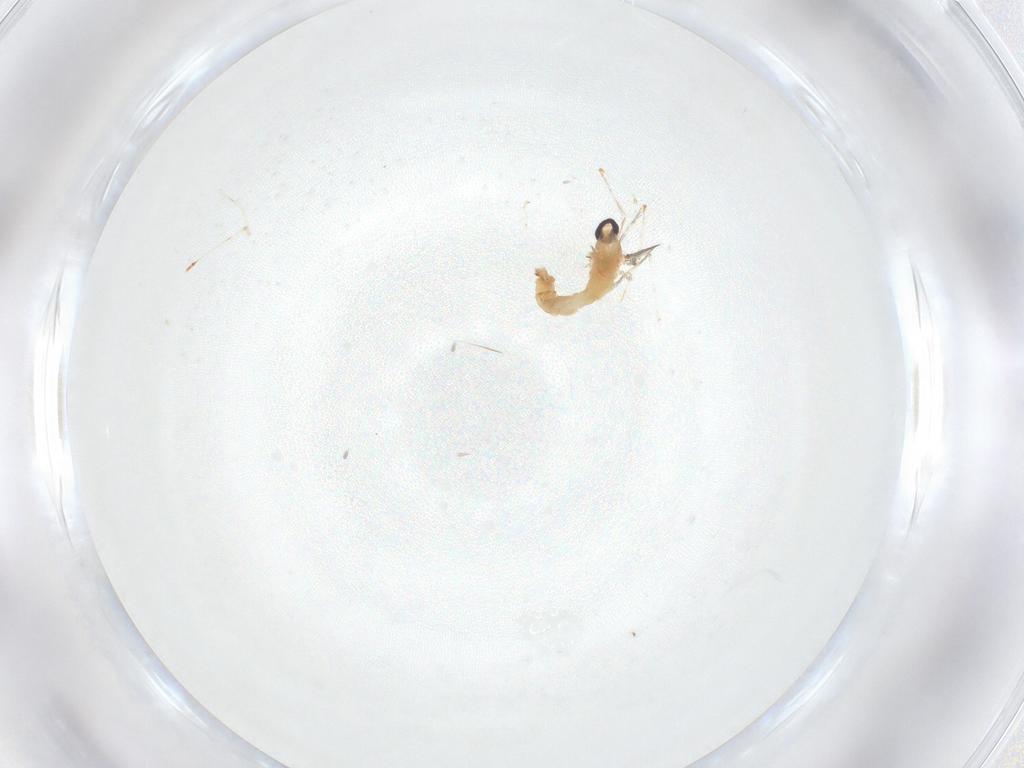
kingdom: Animalia
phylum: Arthropoda
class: Insecta
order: Diptera
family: Cecidomyiidae
